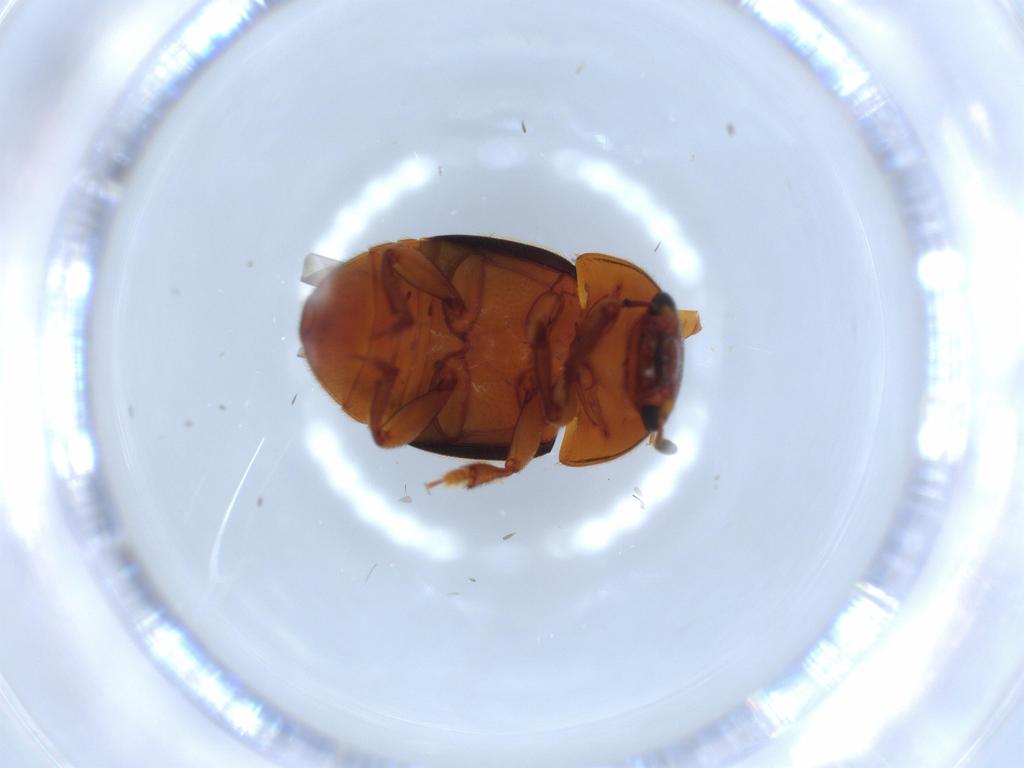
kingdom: Animalia
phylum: Arthropoda
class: Insecta
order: Coleoptera
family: Nitidulidae
